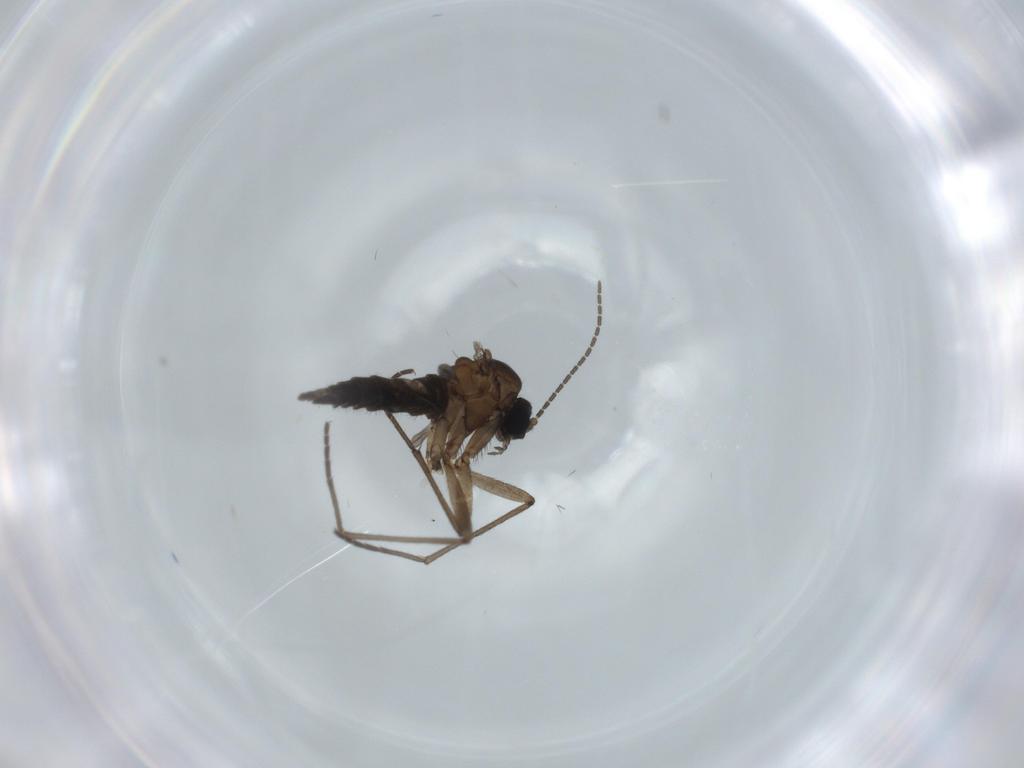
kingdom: Animalia
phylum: Arthropoda
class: Insecta
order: Diptera
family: Sciaridae
